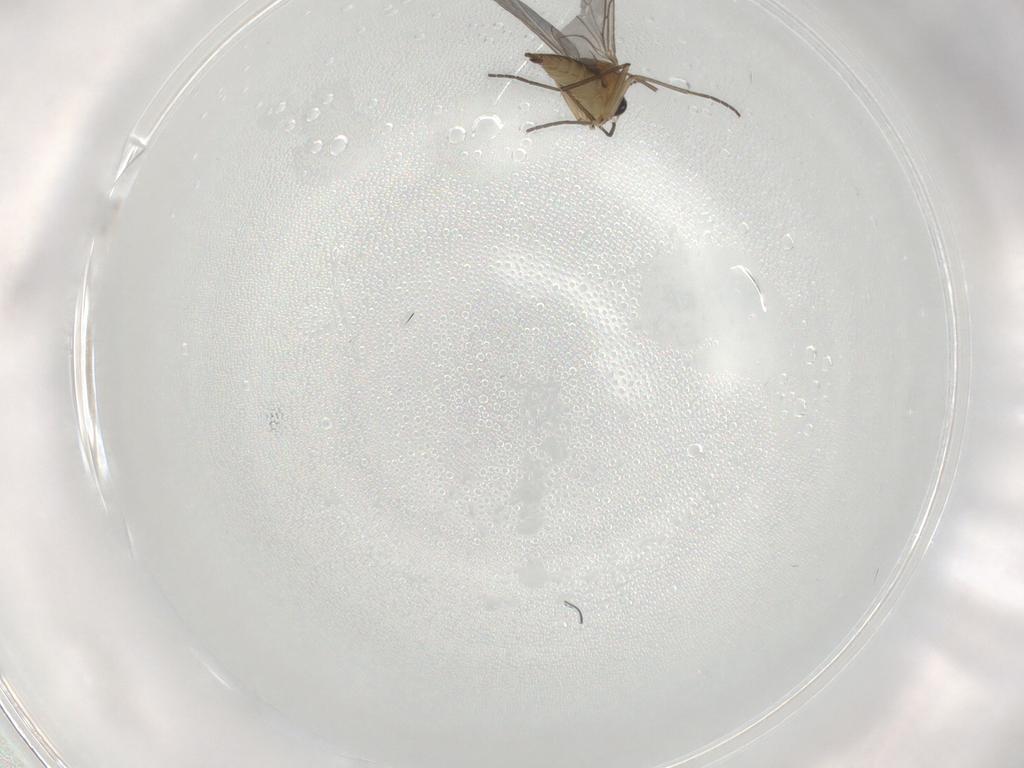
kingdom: Animalia
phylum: Arthropoda
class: Insecta
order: Diptera
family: Sciaridae
